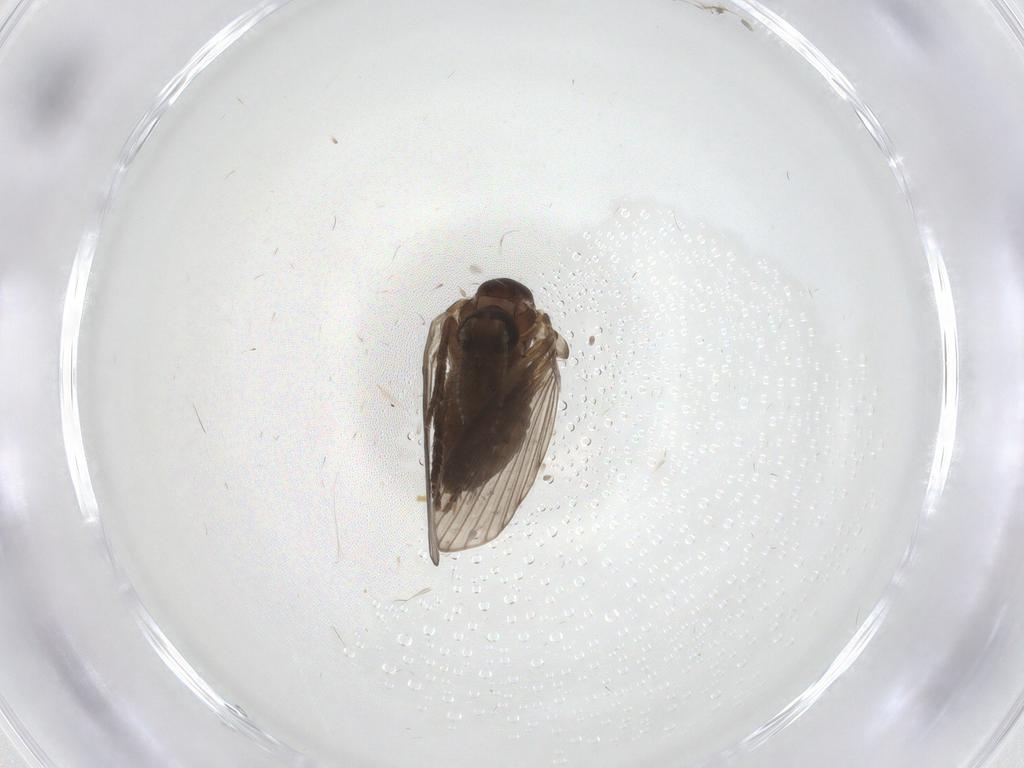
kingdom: Animalia
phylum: Arthropoda
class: Insecta
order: Diptera
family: Psychodidae
